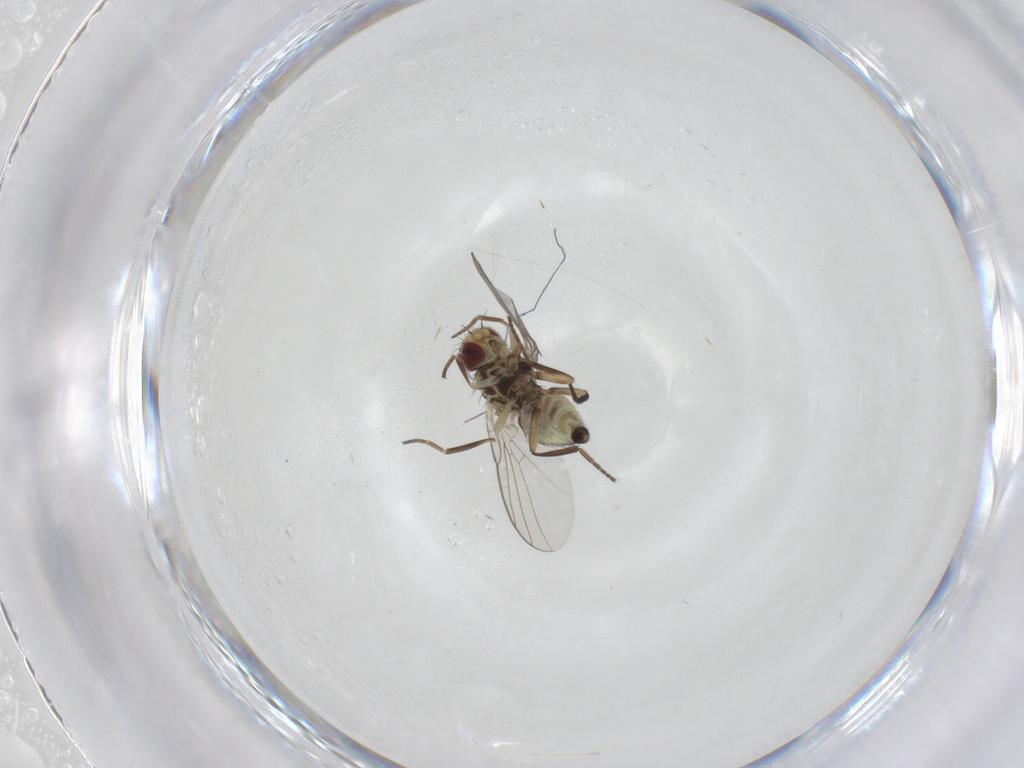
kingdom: Animalia
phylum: Arthropoda
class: Insecta
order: Diptera
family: Agromyzidae
